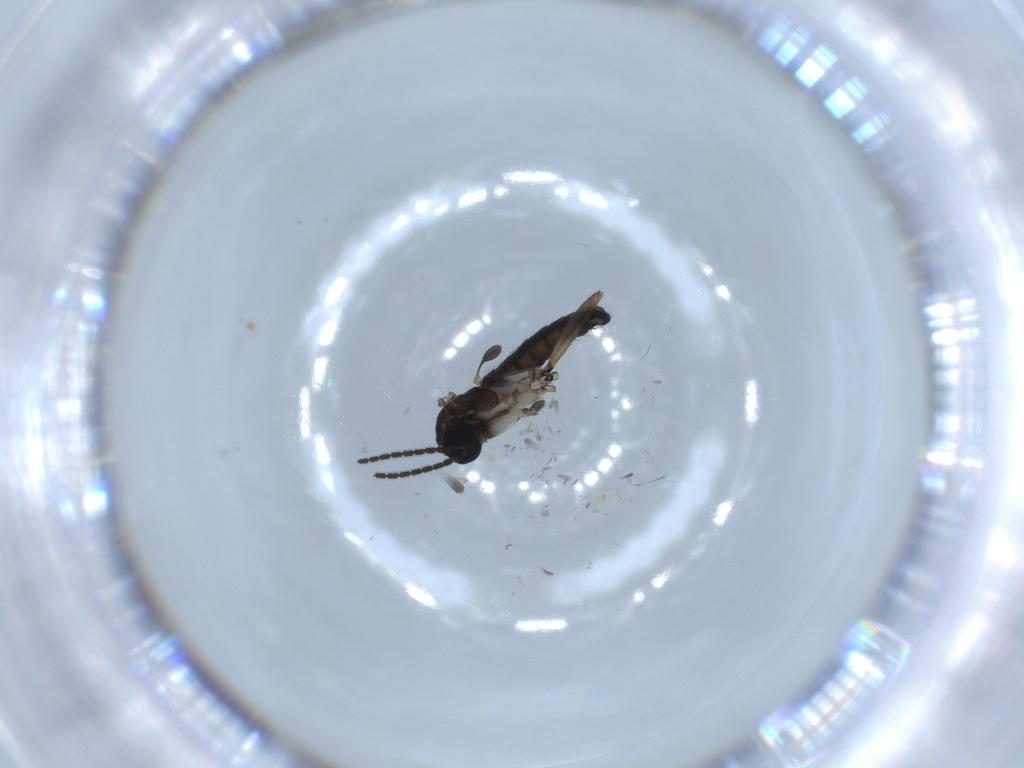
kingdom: Animalia
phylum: Arthropoda
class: Insecta
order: Diptera
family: Sciaridae
